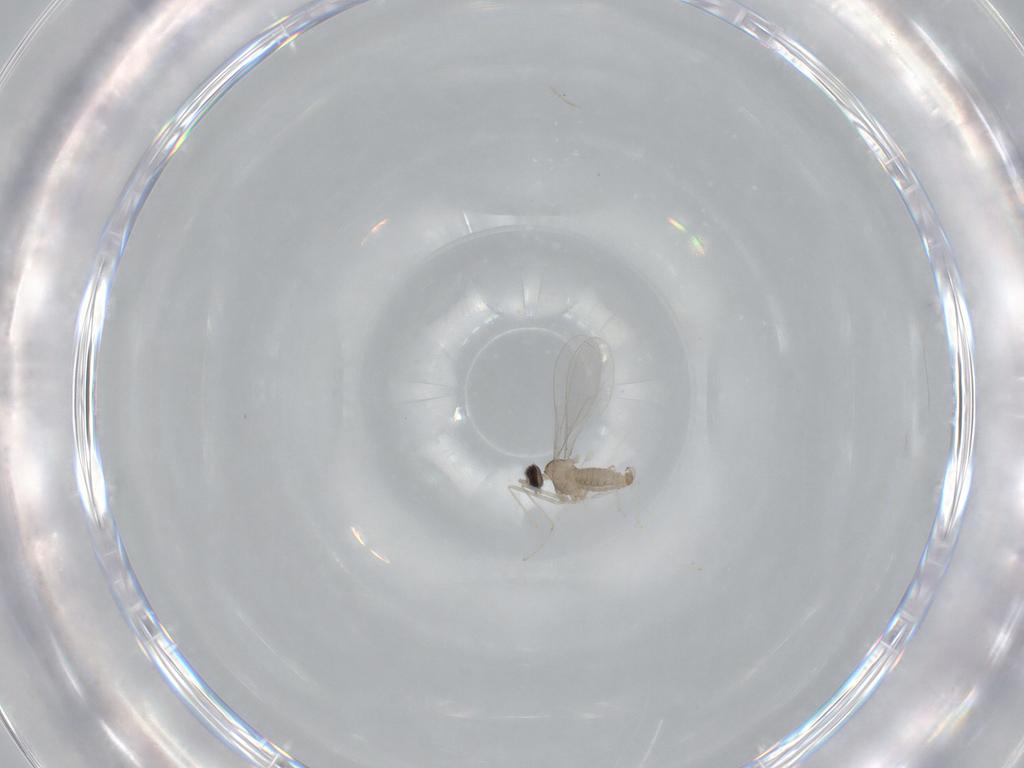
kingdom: Animalia
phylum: Arthropoda
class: Insecta
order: Diptera
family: Cecidomyiidae
